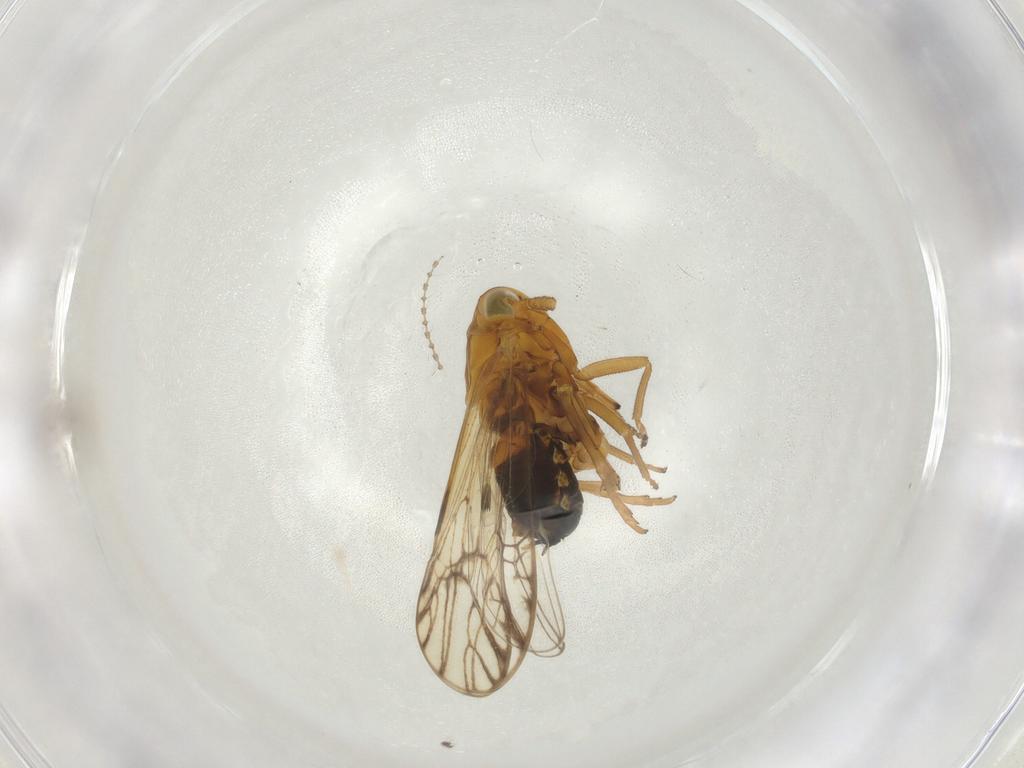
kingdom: Animalia
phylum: Arthropoda
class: Insecta
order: Hemiptera
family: Delphacidae
